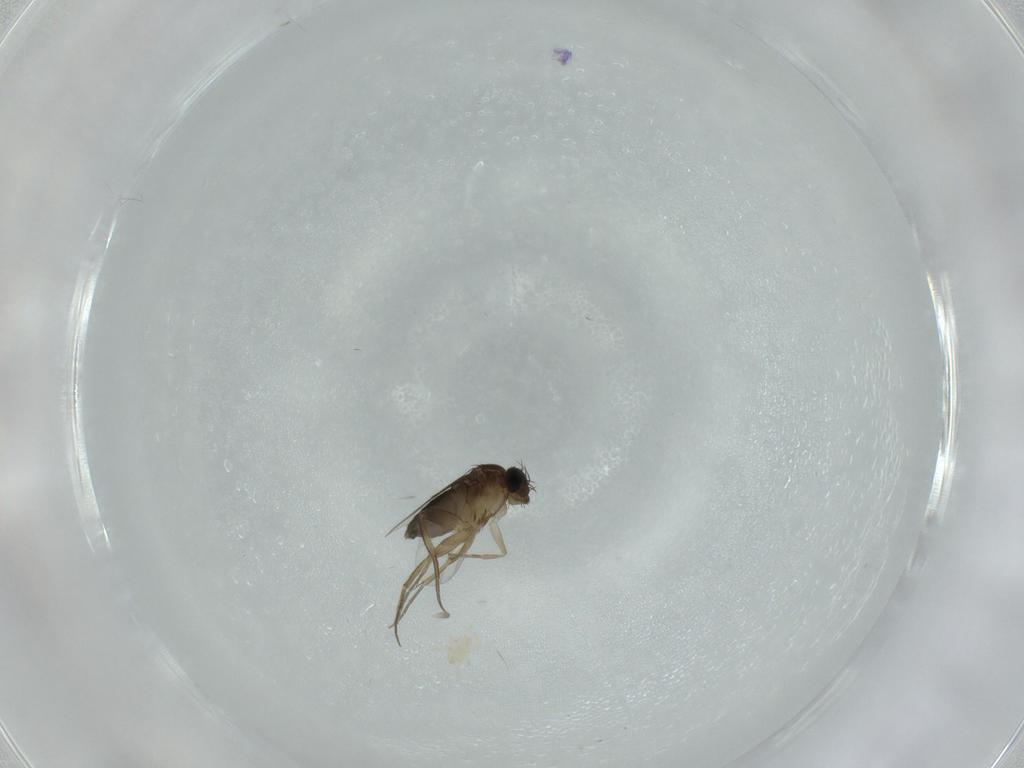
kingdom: Animalia
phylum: Arthropoda
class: Insecta
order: Diptera
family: Phoridae
